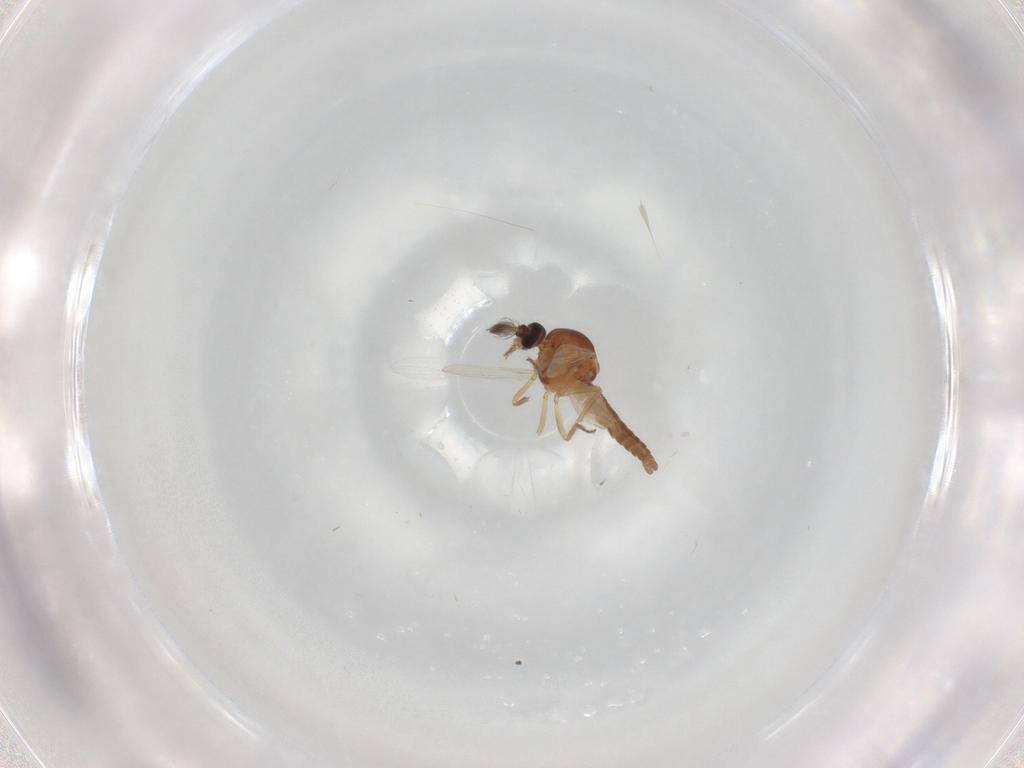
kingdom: Animalia
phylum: Arthropoda
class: Insecta
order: Diptera
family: Ceratopogonidae
